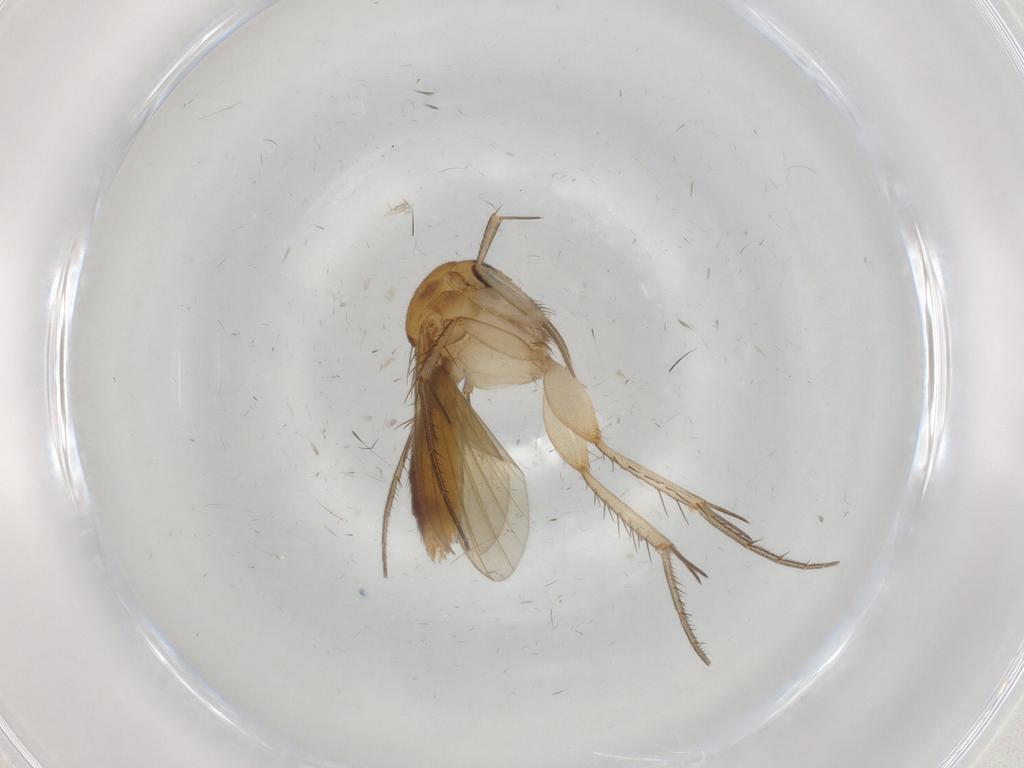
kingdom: Animalia
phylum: Arthropoda
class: Insecta
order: Diptera
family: Mycetophilidae
